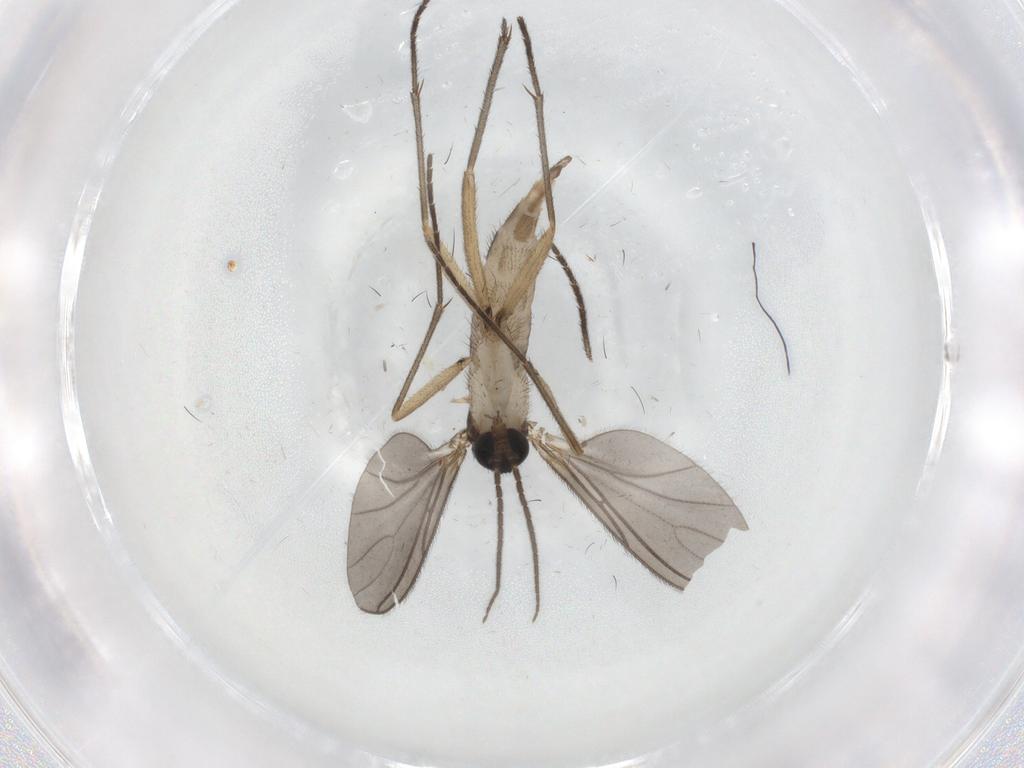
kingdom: Animalia
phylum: Arthropoda
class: Insecta
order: Diptera
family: Sciaridae
